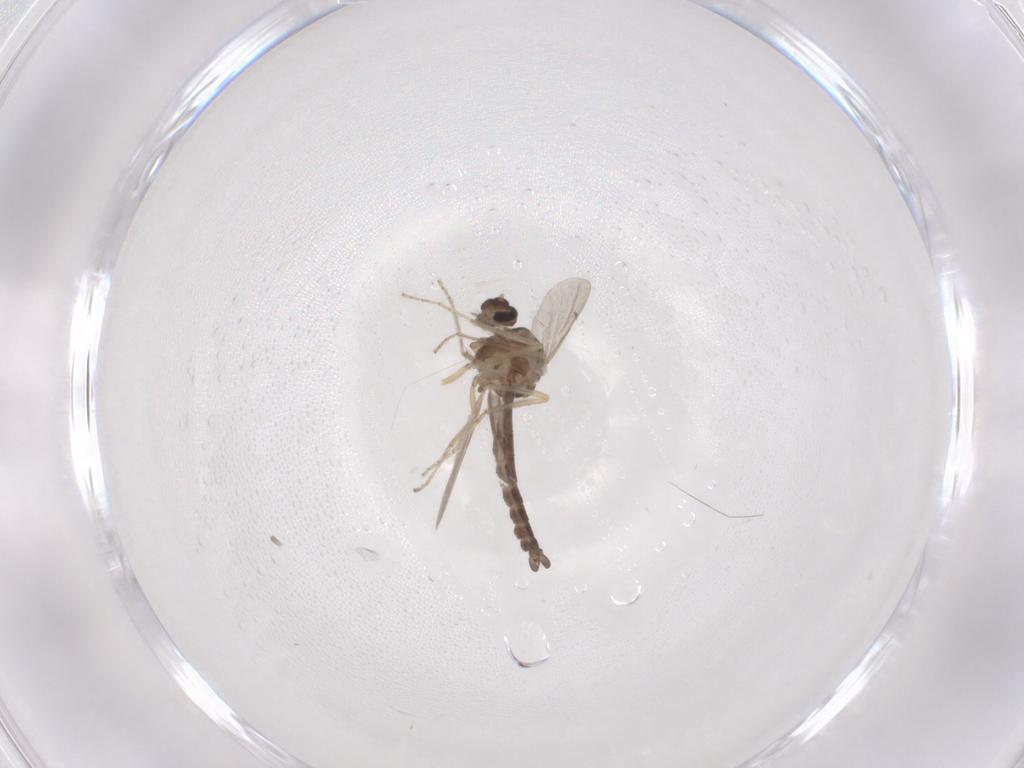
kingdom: Animalia
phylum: Arthropoda
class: Insecta
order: Diptera
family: Ceratopogonidae
